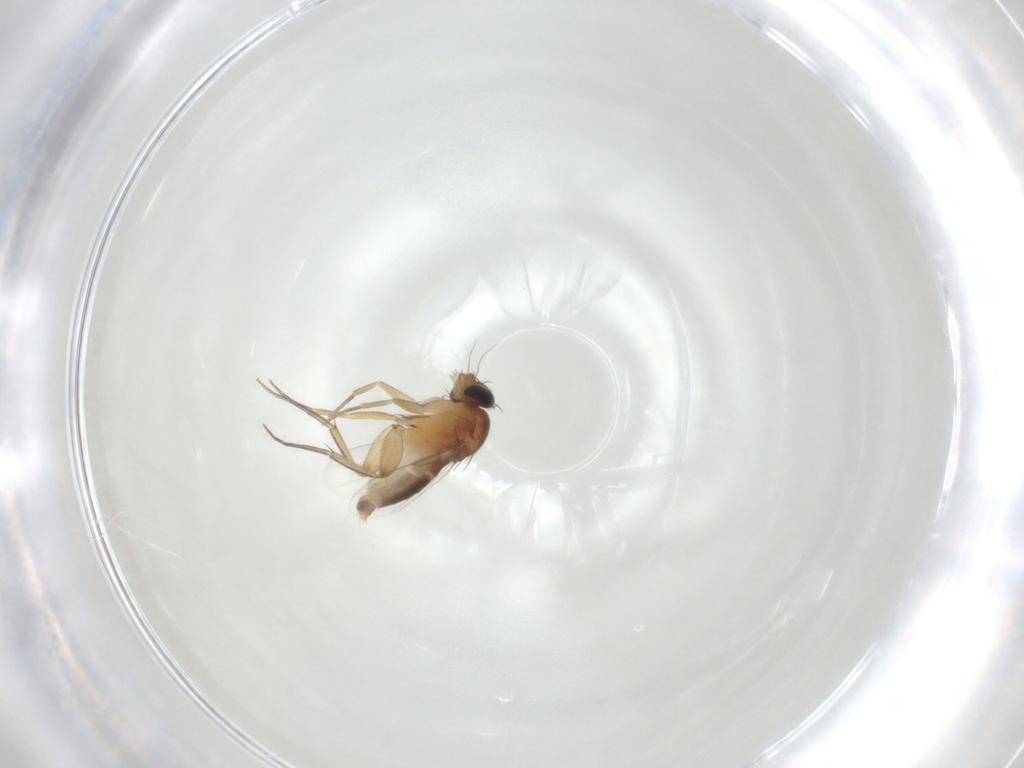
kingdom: Animalia
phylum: Arthropoda
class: Insecta
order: Diptera
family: Phoridae
